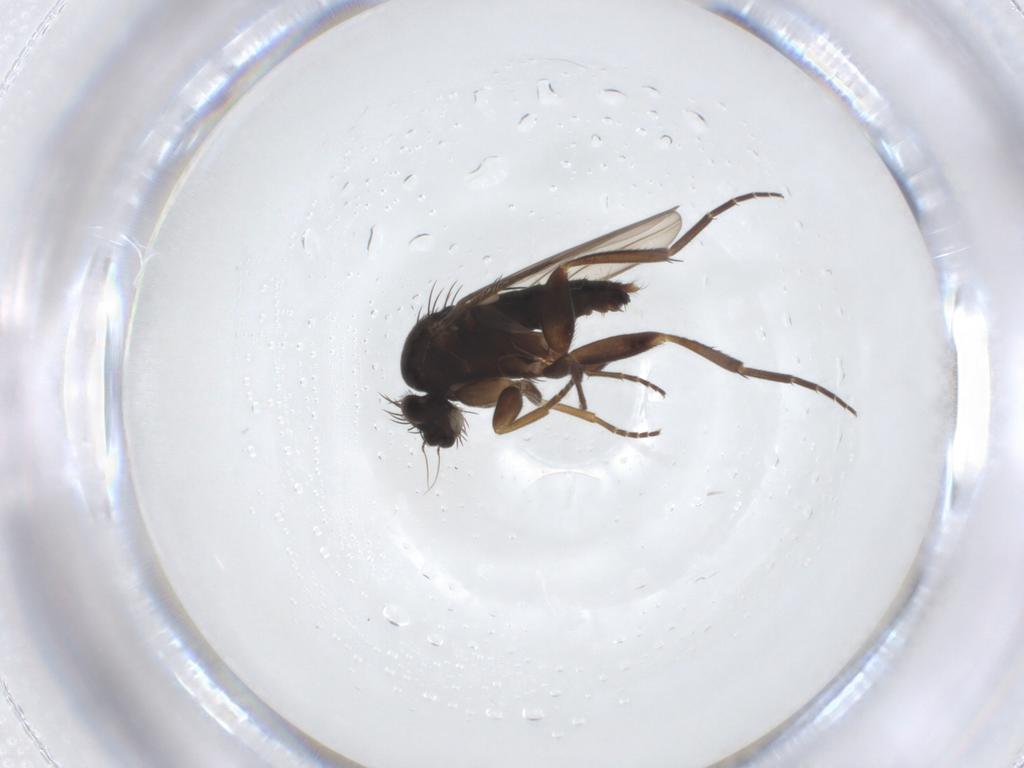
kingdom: Animalia
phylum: Arthropoda
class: Insecta
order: Diptera
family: Phoridae
